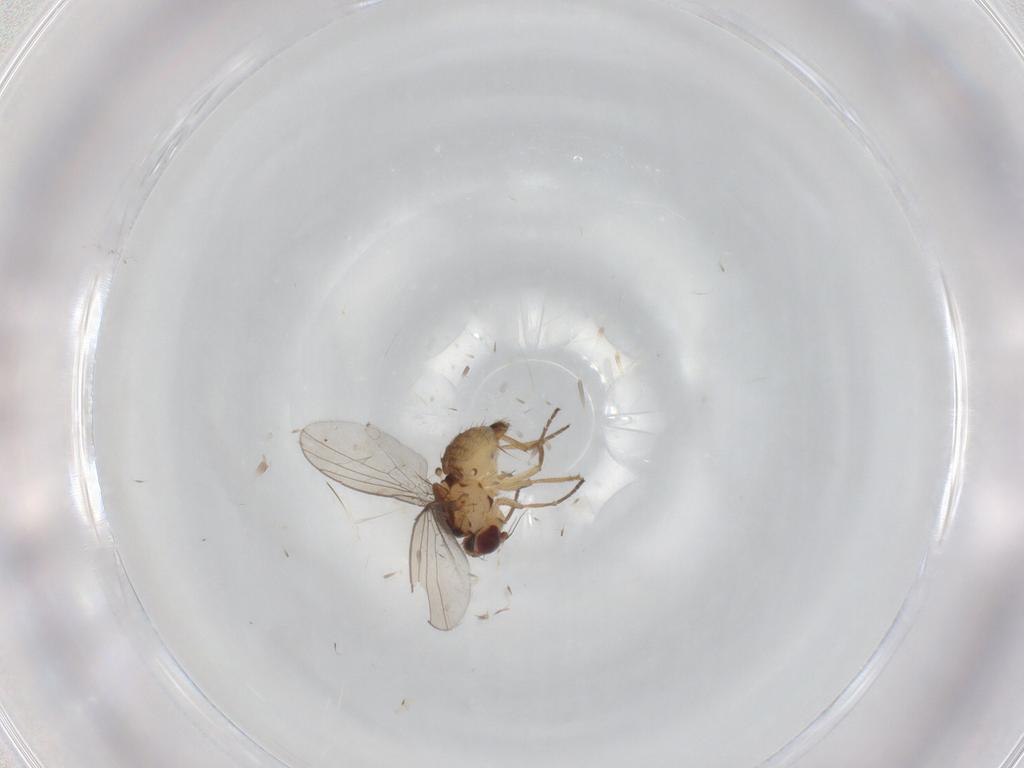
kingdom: Animalia
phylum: Arthropoda
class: Insecta
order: Diptera
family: Agromyzidae
